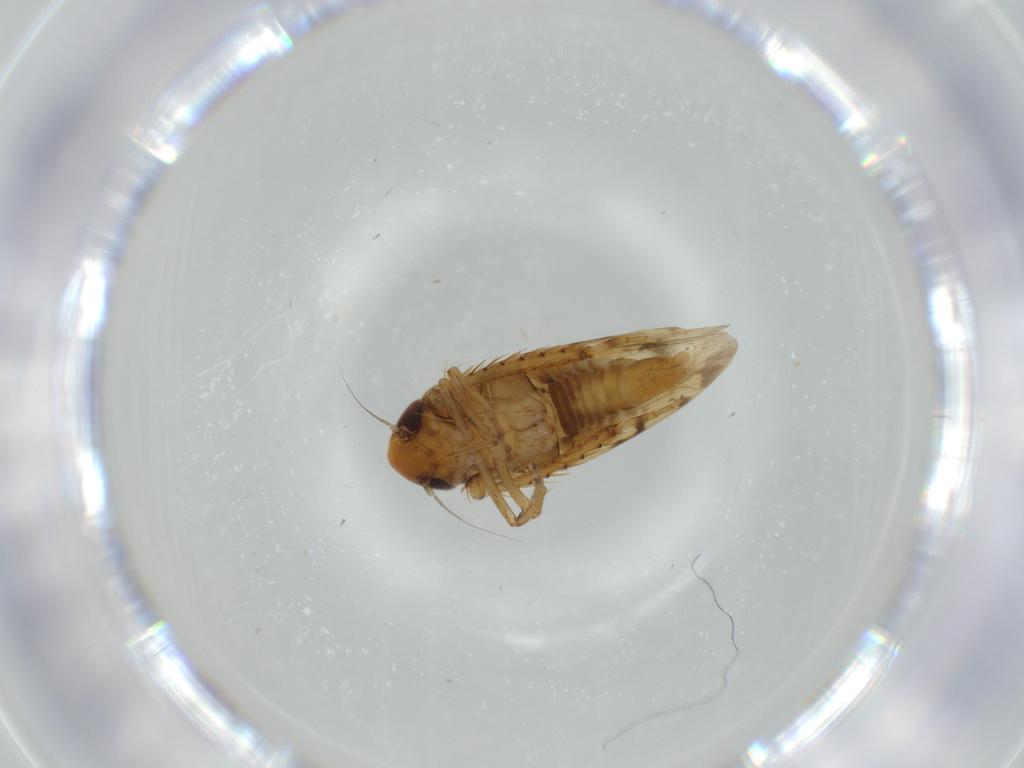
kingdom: Animalia
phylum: Arthropoda
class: Insecta
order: Hemiptera
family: Cicadellidae
